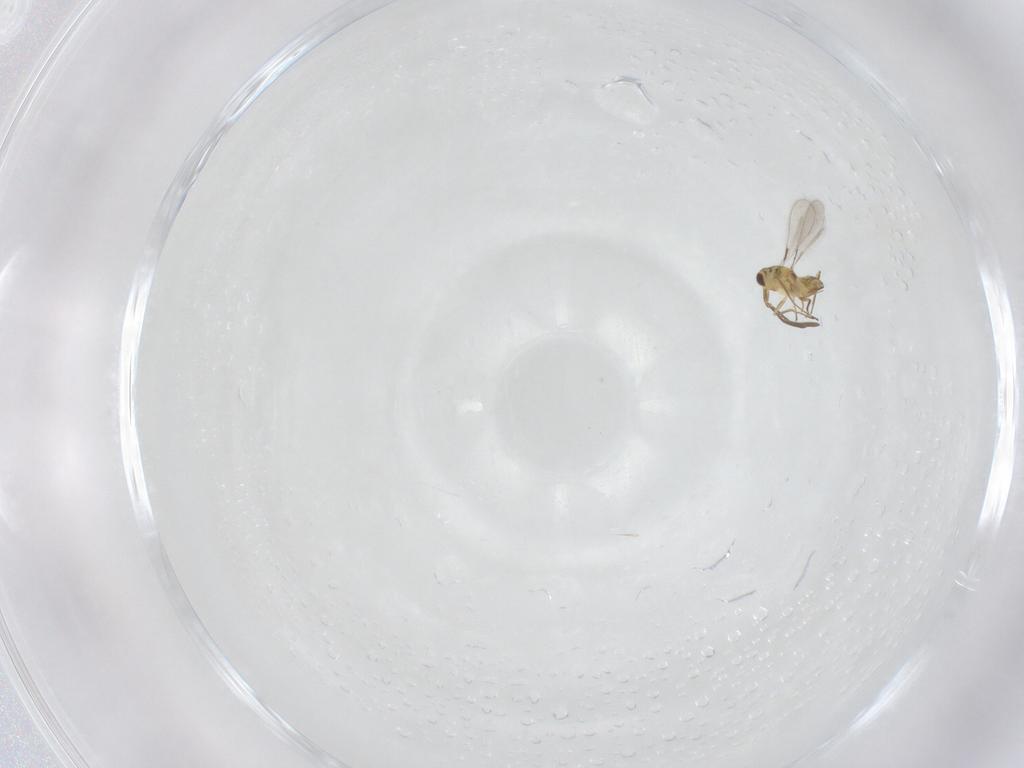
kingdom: Animalia
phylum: Arthropoda
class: Insecta
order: Hymenoptera
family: Mymaridae
